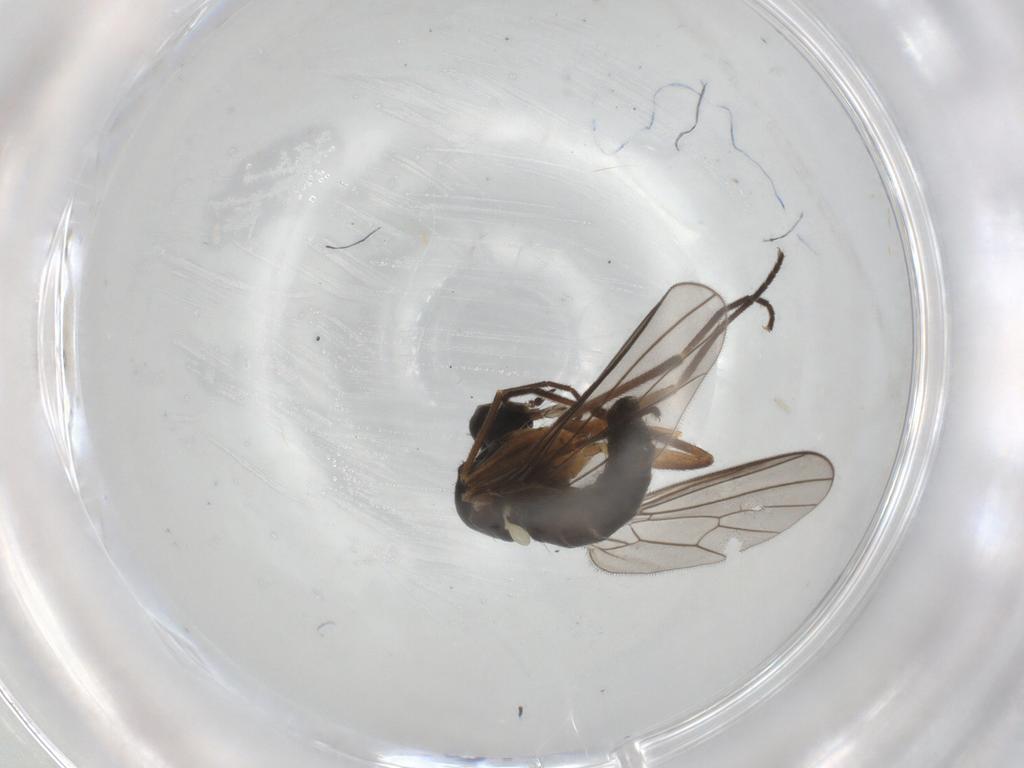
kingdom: Animalia
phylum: Arthropoda
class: Insecta
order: Diptera
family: Empididae
